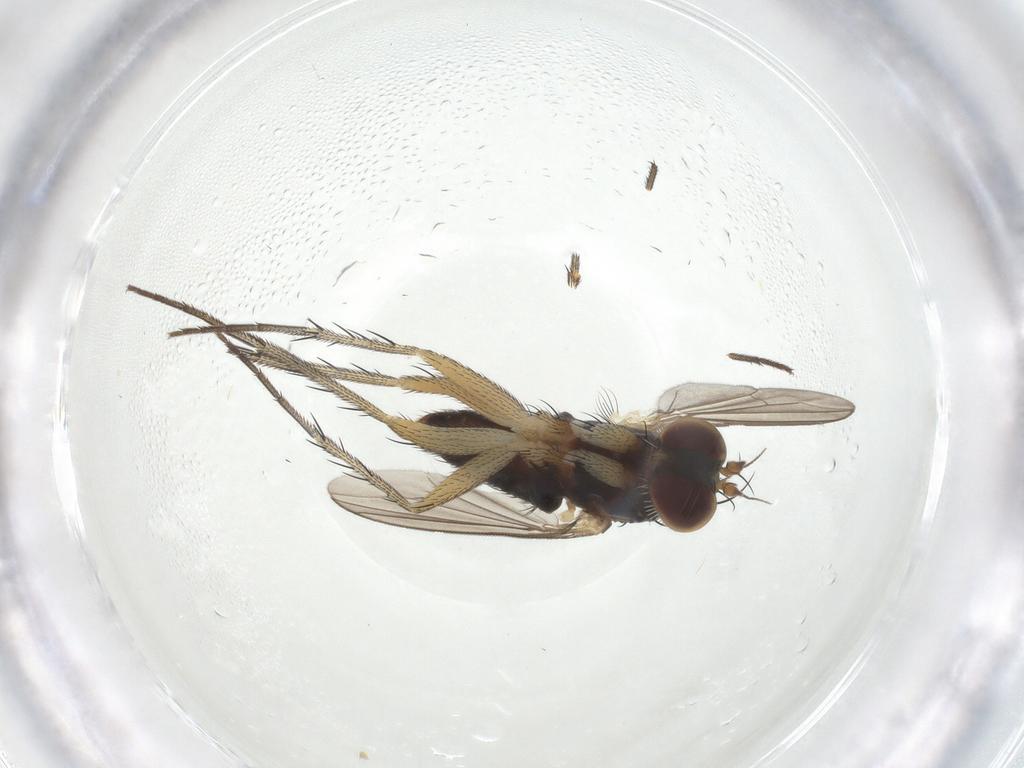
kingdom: Animalia
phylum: Arthropoda
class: Insecta
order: Diptera
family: Dolichopodidae
